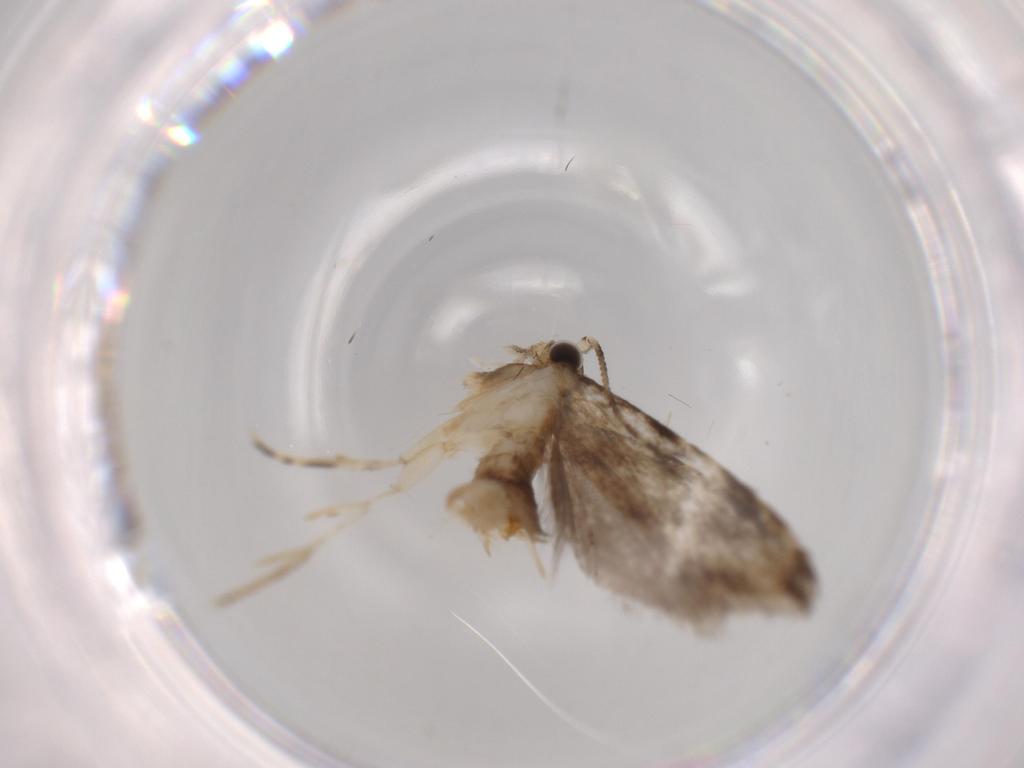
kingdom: Animalia
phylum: Arthropoda
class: Insecta
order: Lepidoptera
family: Tineidae
